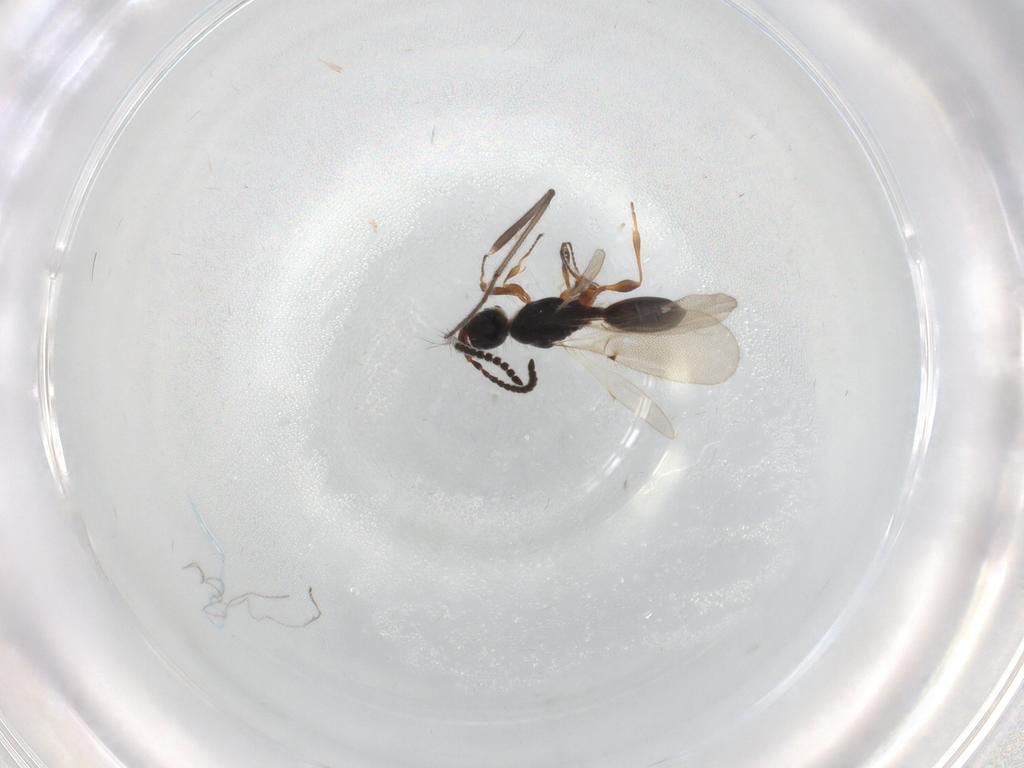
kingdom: Animalia
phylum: Arthropoda
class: Insecta
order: Hymenoptera
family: Diapriidae
